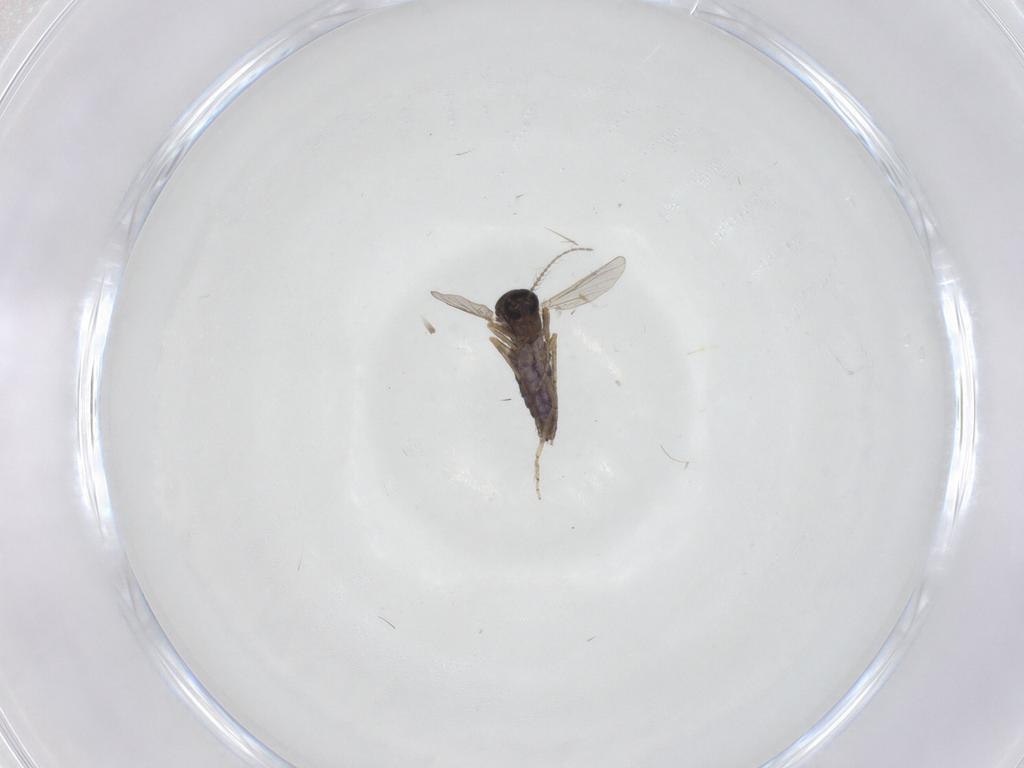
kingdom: Animalia
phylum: Arthropoda
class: Insecta
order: Diptera
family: Ceratopogonidae
